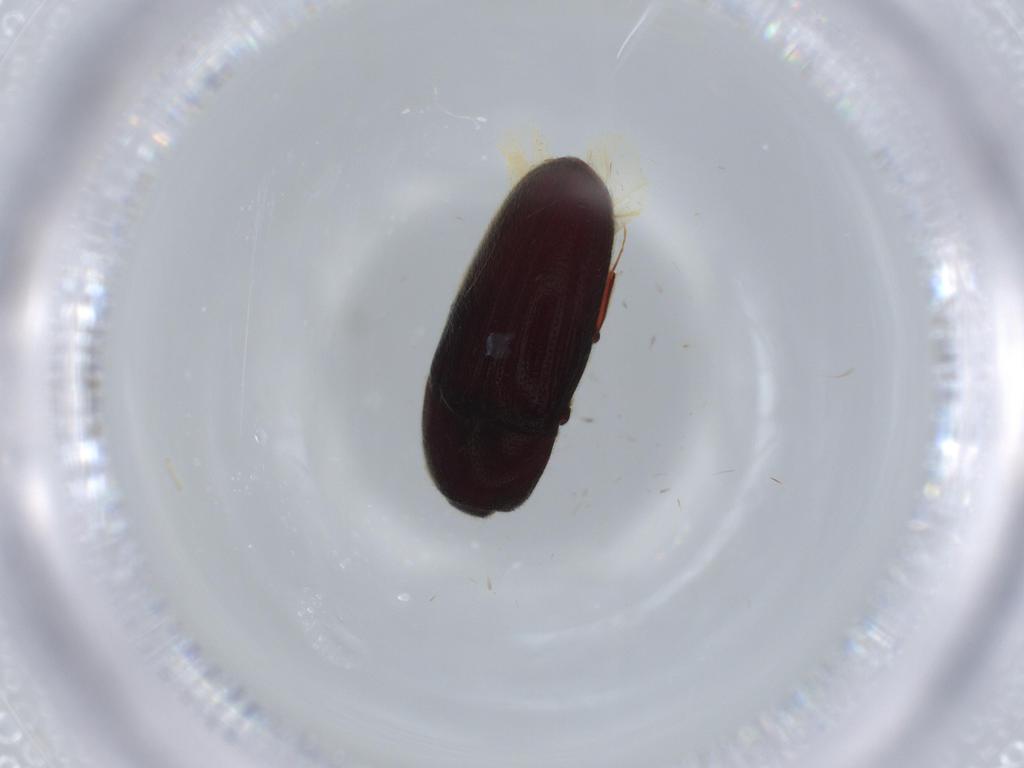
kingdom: Animalia
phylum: Arthropoda
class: Insecta
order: Coleoptera
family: Throscidae
